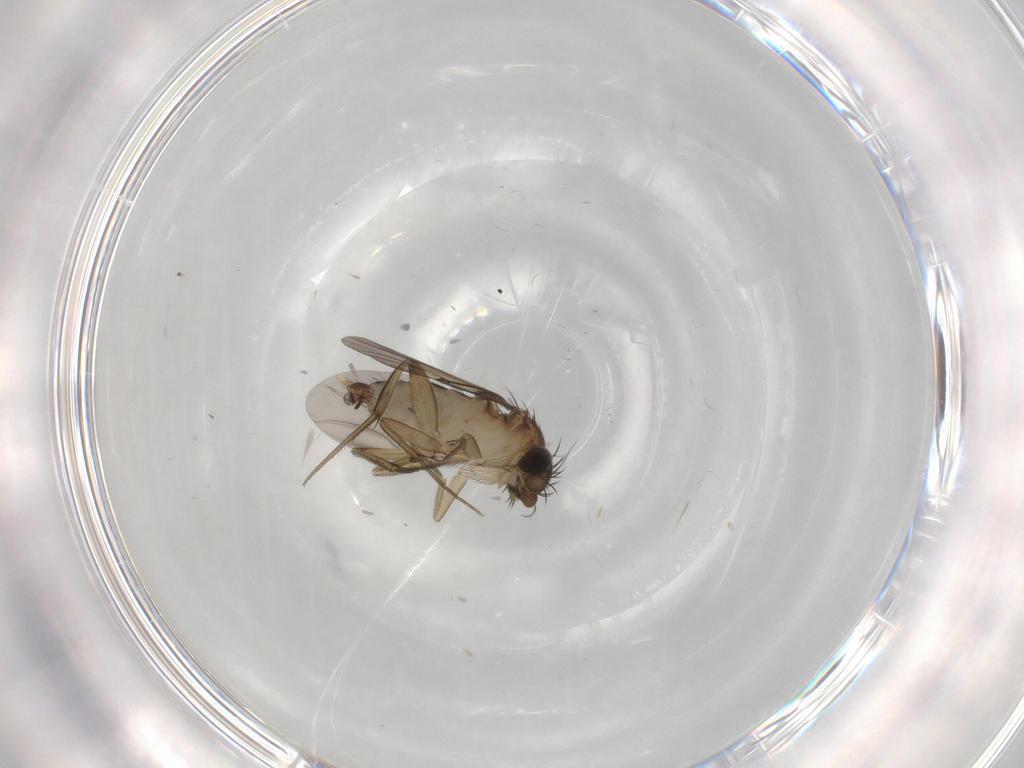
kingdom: Animalia
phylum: Arthropoda
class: Insecta
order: Diptera
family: Phoridae
